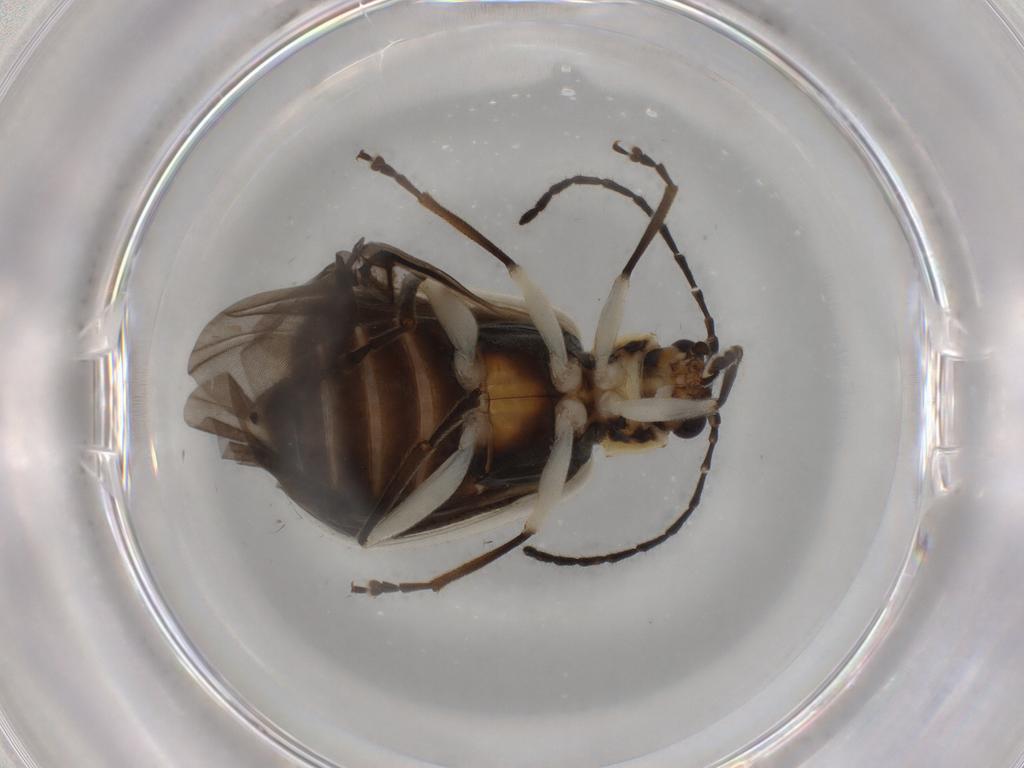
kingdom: Animalia
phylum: Arthropoda
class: Insecta
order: Coleoptera
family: Chrysomelidae
